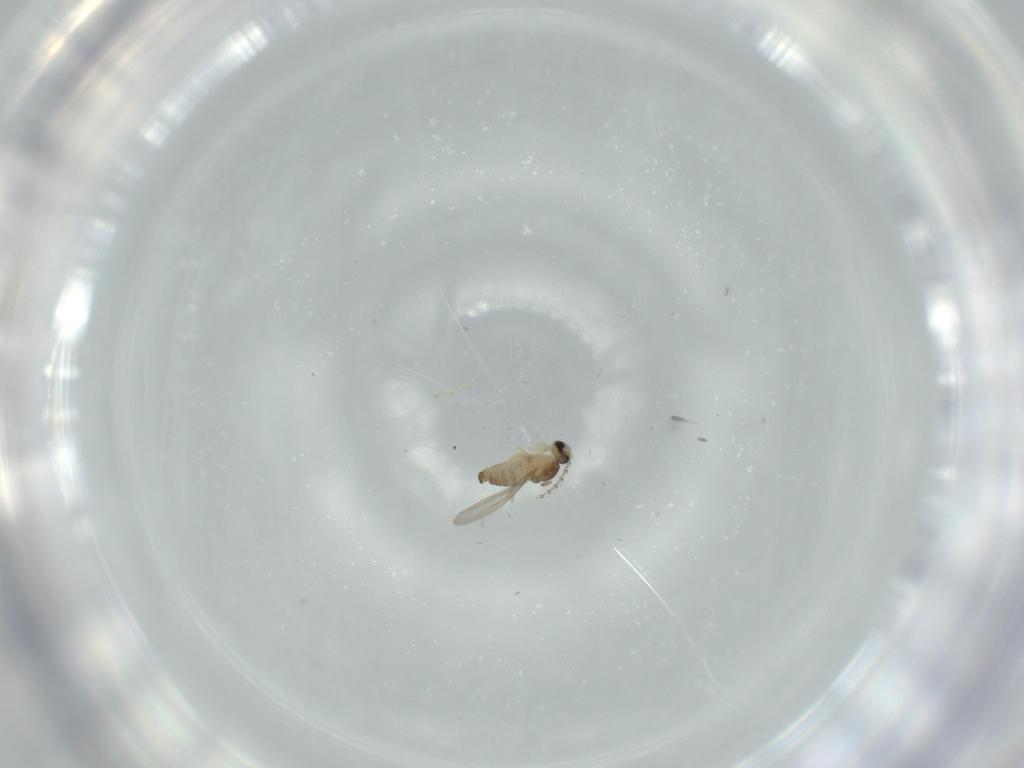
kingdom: Animalia
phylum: Arthropoda
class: Insecta
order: Diptera
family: Cecidomyiidae
